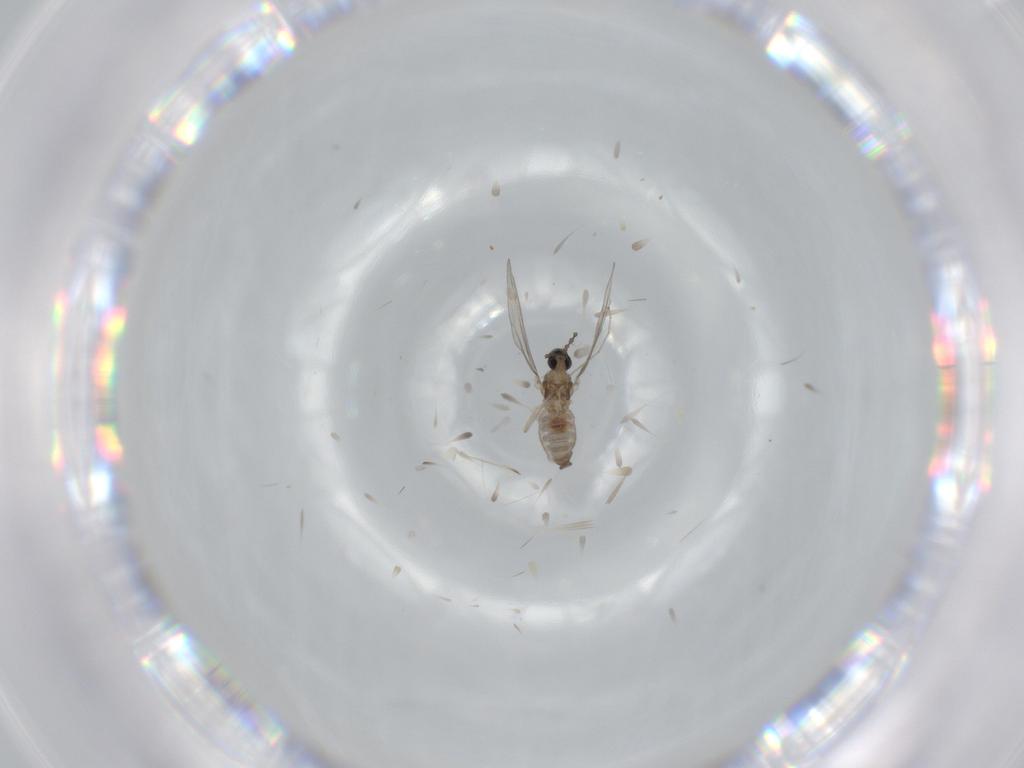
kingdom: Animalia
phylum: Arthropoda
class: Insecta
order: Diptera
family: Cecidomyiidae
